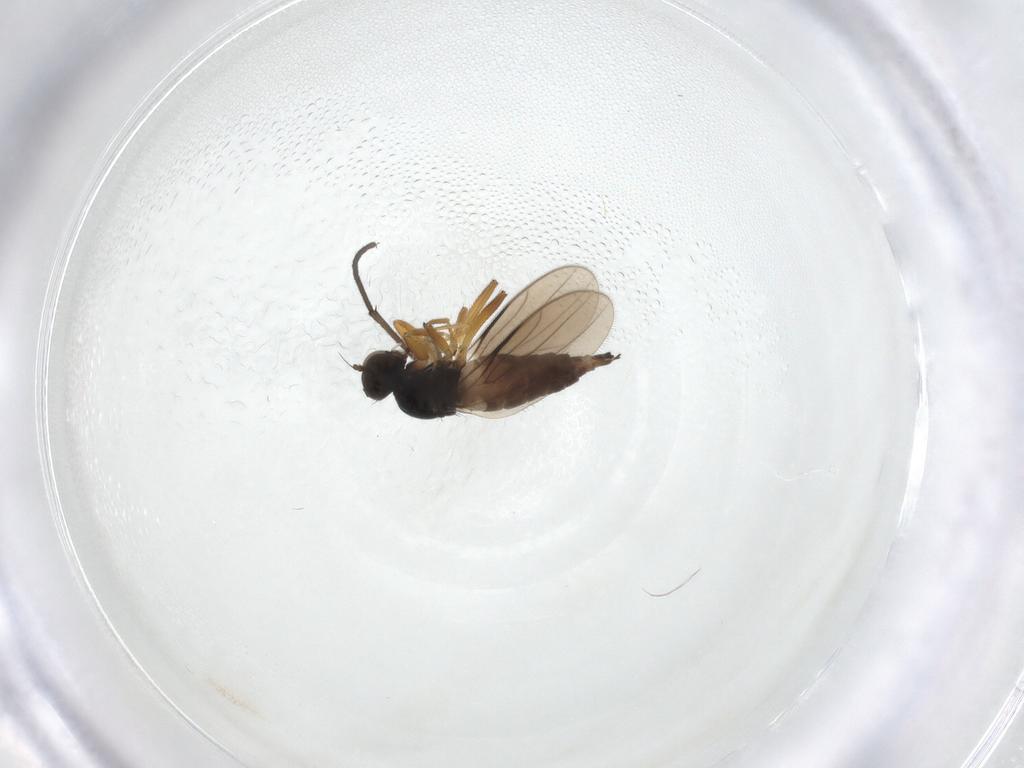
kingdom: Animalia
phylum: Arthropoda
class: Insecta
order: Diptera
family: Hybotidae
